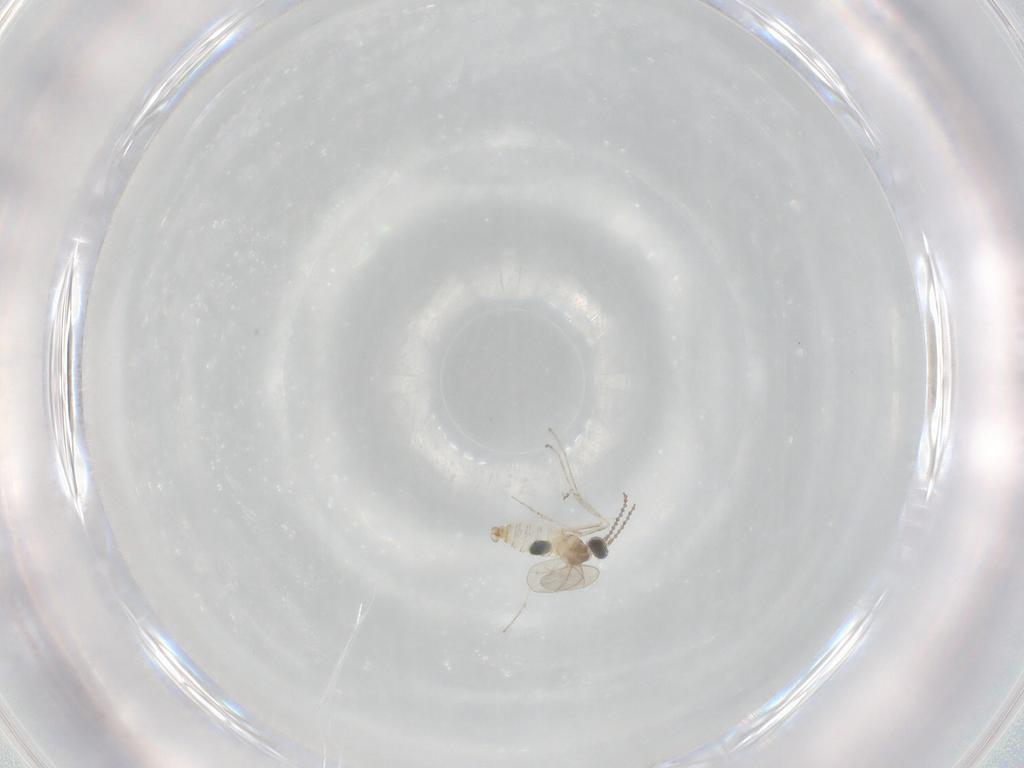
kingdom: Animalia
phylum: Arthropoda
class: Insecta
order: Diptera
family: Cecidomyiidae
